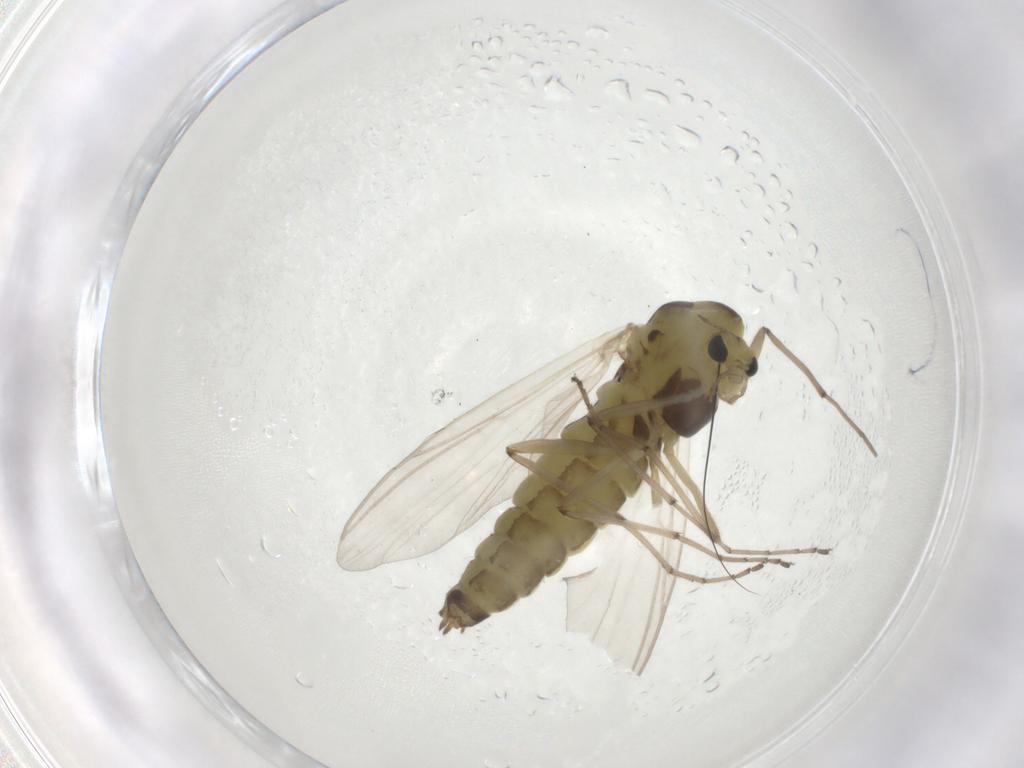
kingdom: Animalia
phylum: Arthropoda
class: Insecta
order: Diptera
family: Chironomidae
